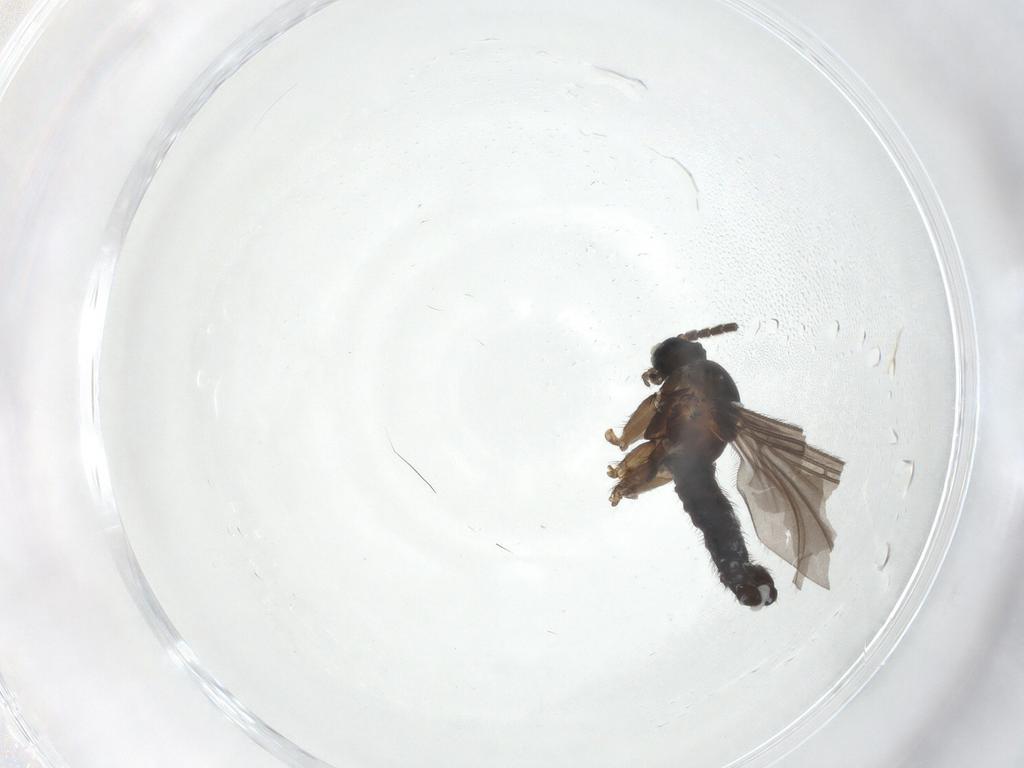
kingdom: Animalia
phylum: Arthropoda
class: Insecta
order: Diptera
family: Sciaridae
